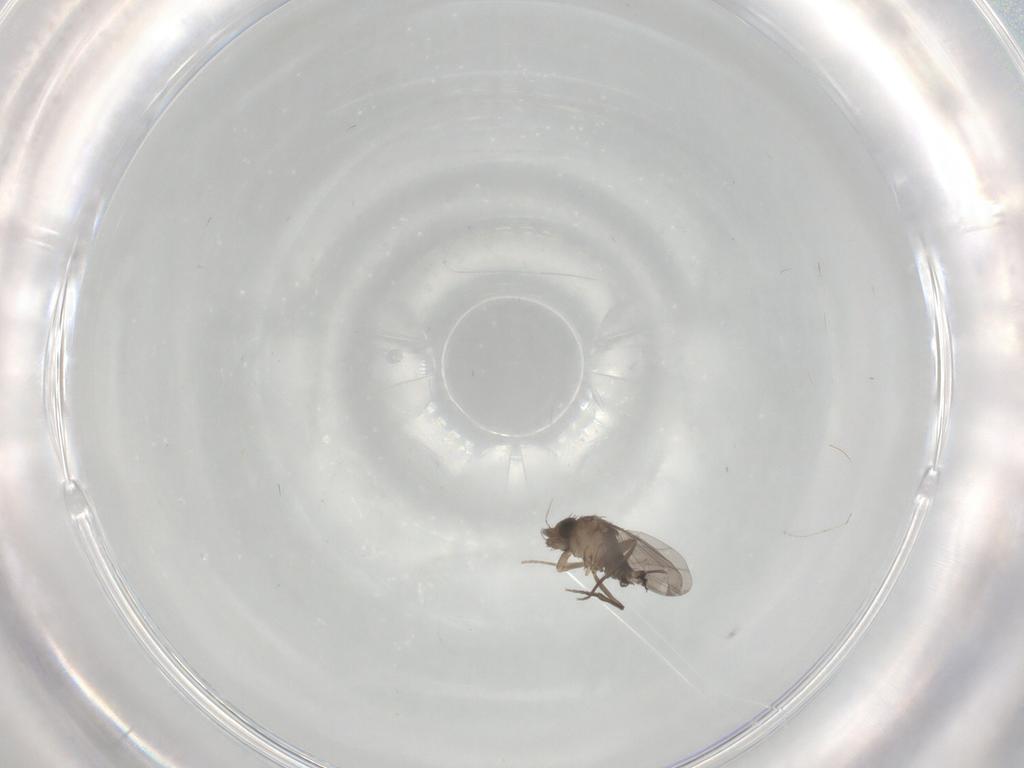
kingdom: Animalia
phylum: Arthropoda
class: Insecta
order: Diptera
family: Phoridae
